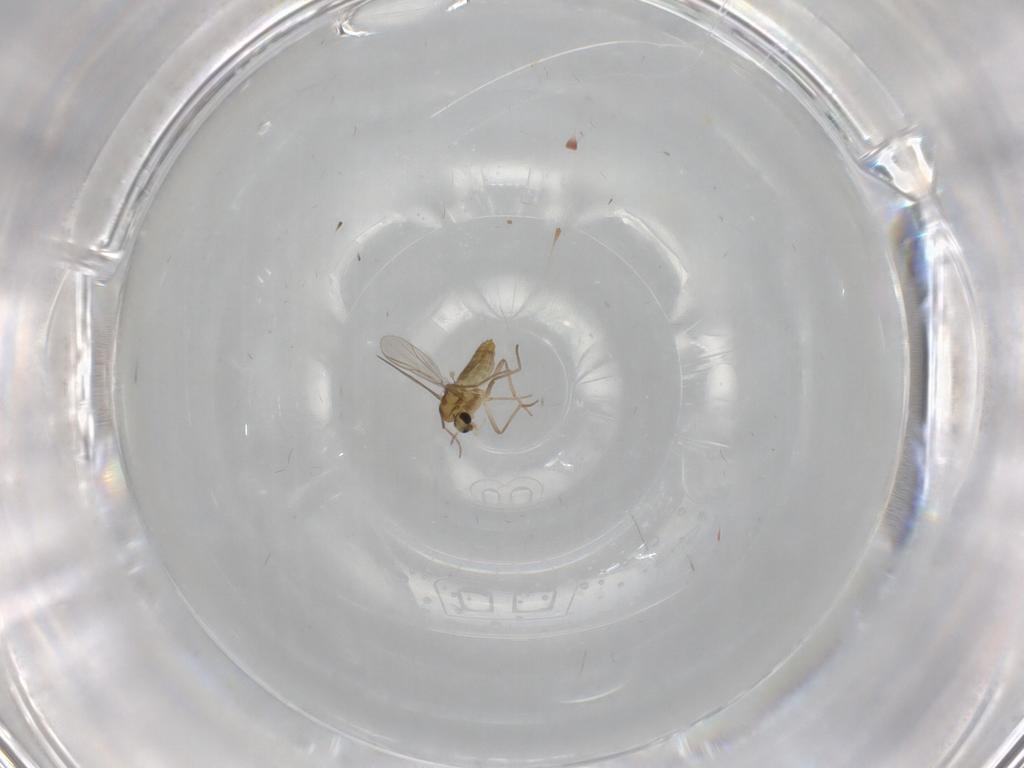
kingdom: Animalia
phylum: Arthropoda
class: Insecta
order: Diptera
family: Chironomidae
